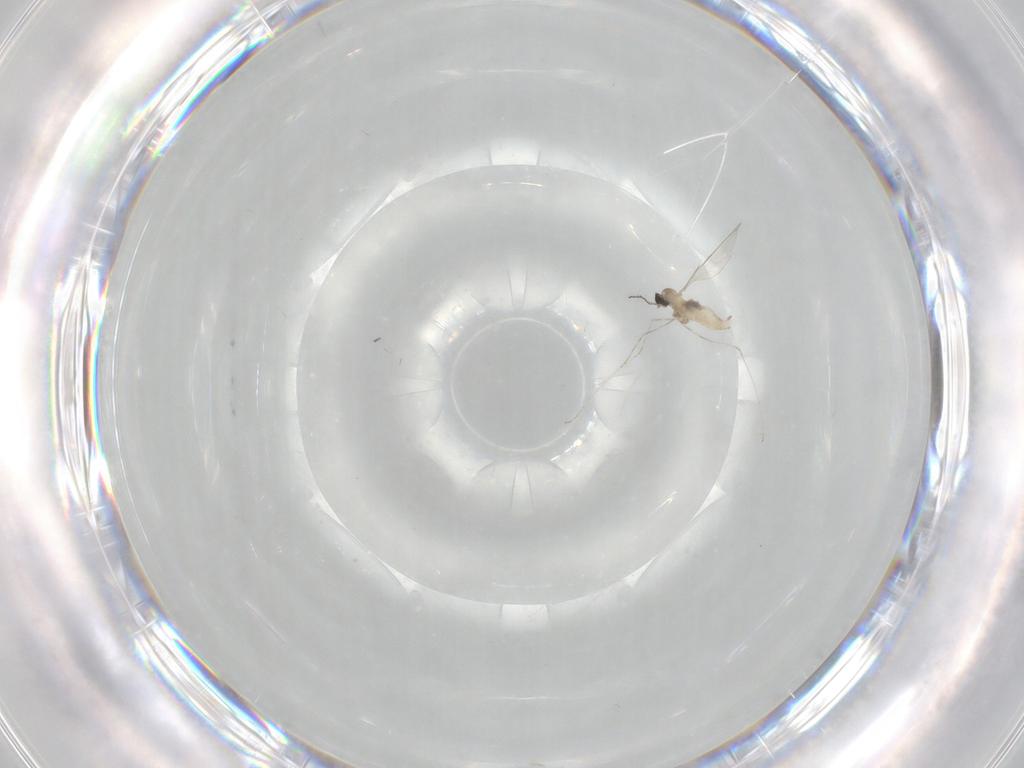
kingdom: Animalia
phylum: Arthropoda
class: Insecta
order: Diptera
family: Cecidomyiidae
